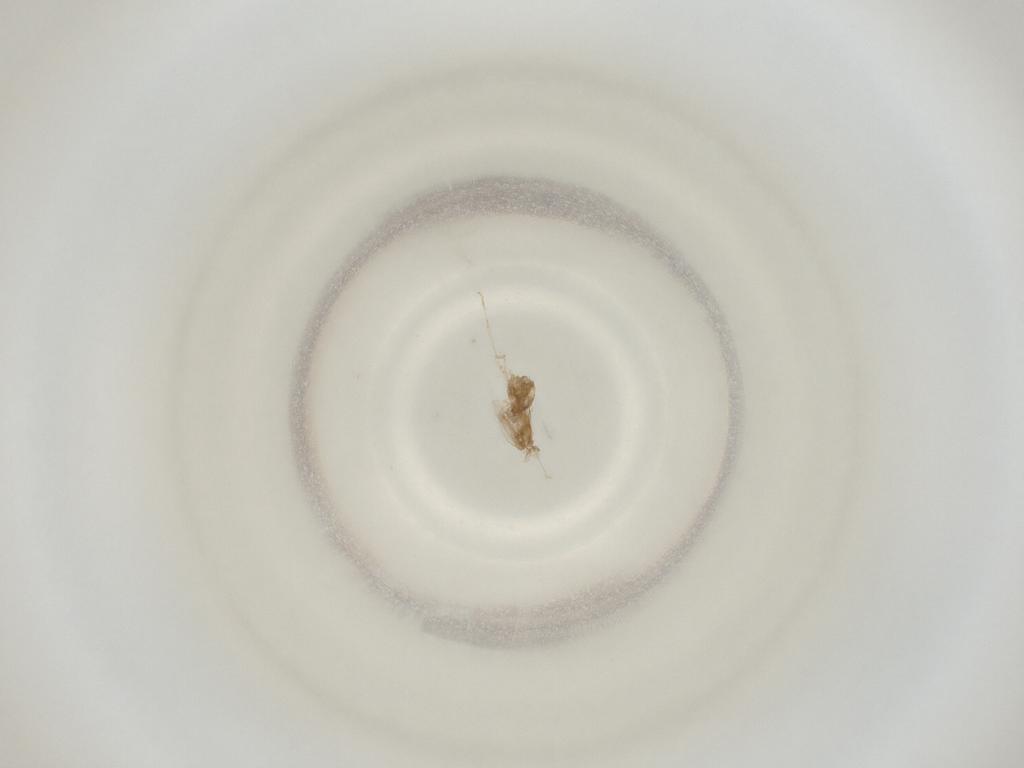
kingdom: Animalia
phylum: Arthropoda
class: Insecta
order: Diptera
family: Cecidomyiidae
